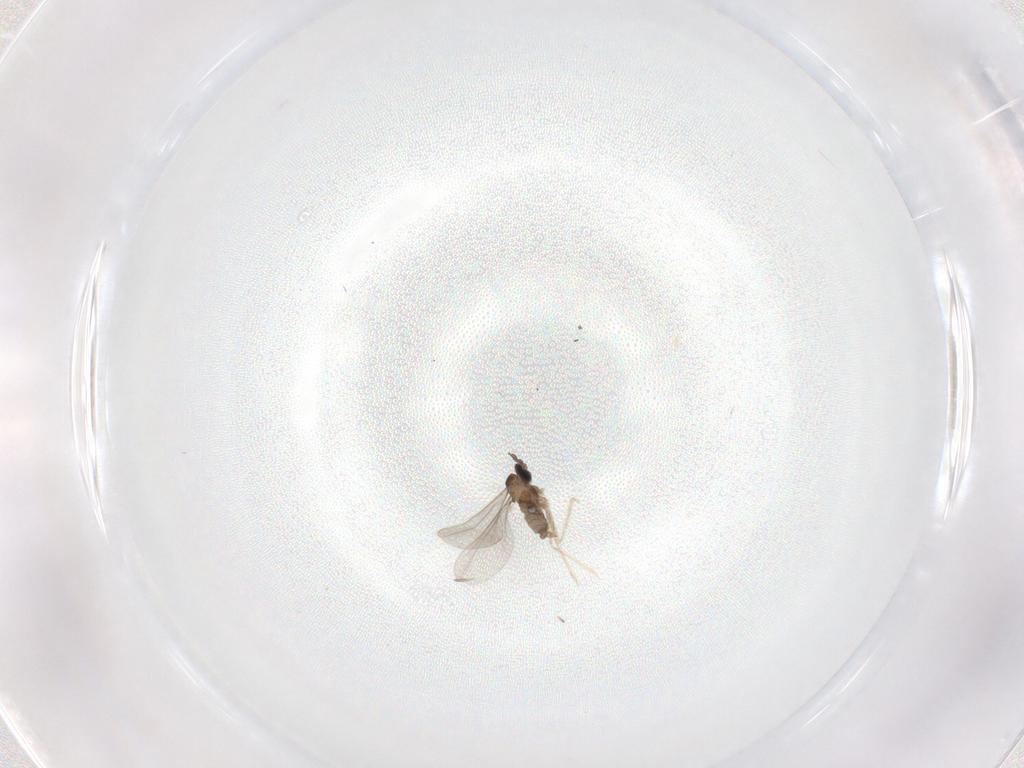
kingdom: Animalia
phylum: Arthropoda
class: Insecta
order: Diptera
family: Cecidomyiidae
